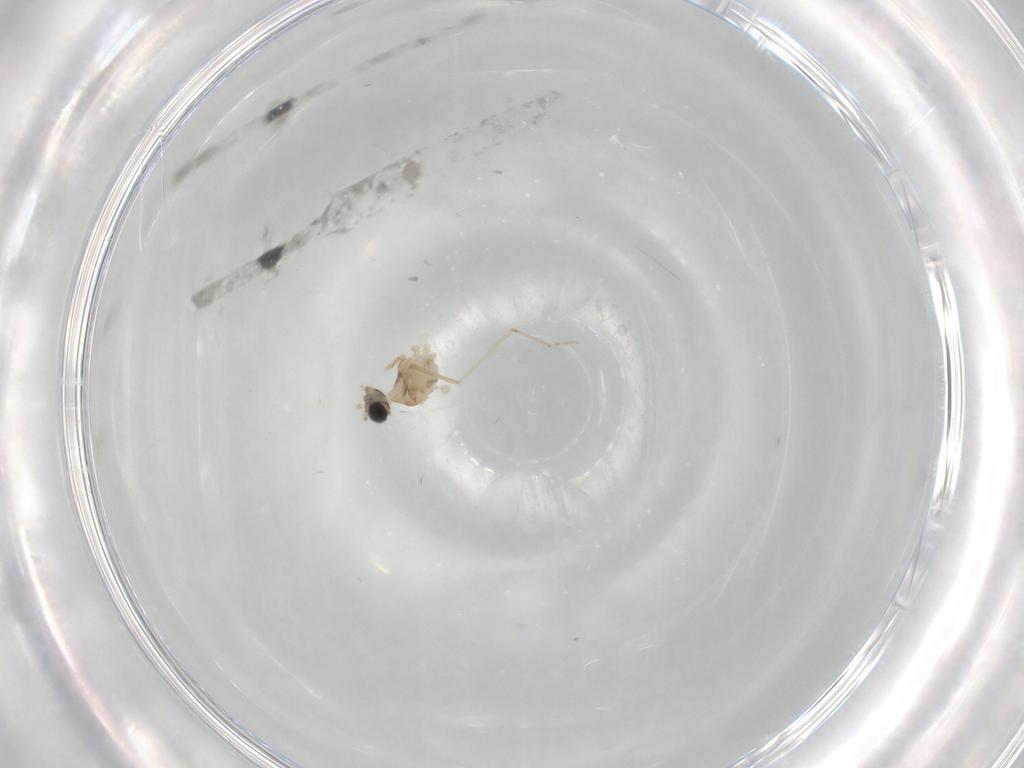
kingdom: Animalia
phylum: Arthropoda
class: Insecta
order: Diptera
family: Cecidomyiidae
